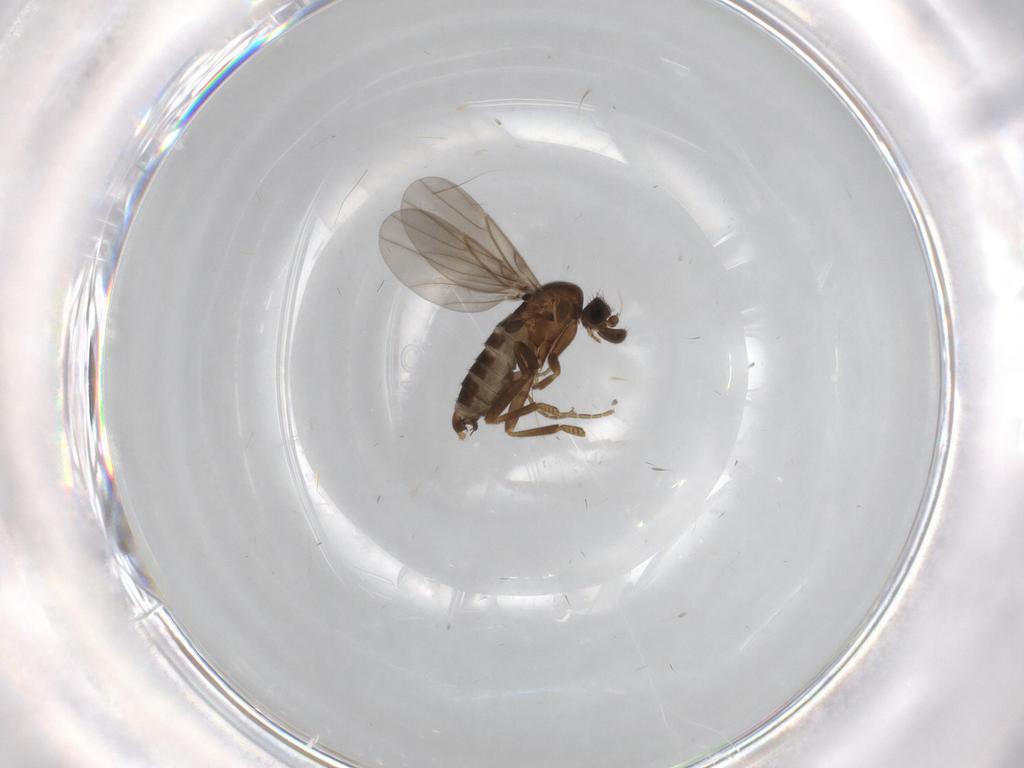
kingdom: Animalia
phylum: Arthropoda
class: Insecta
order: Diptera
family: Phoridae
